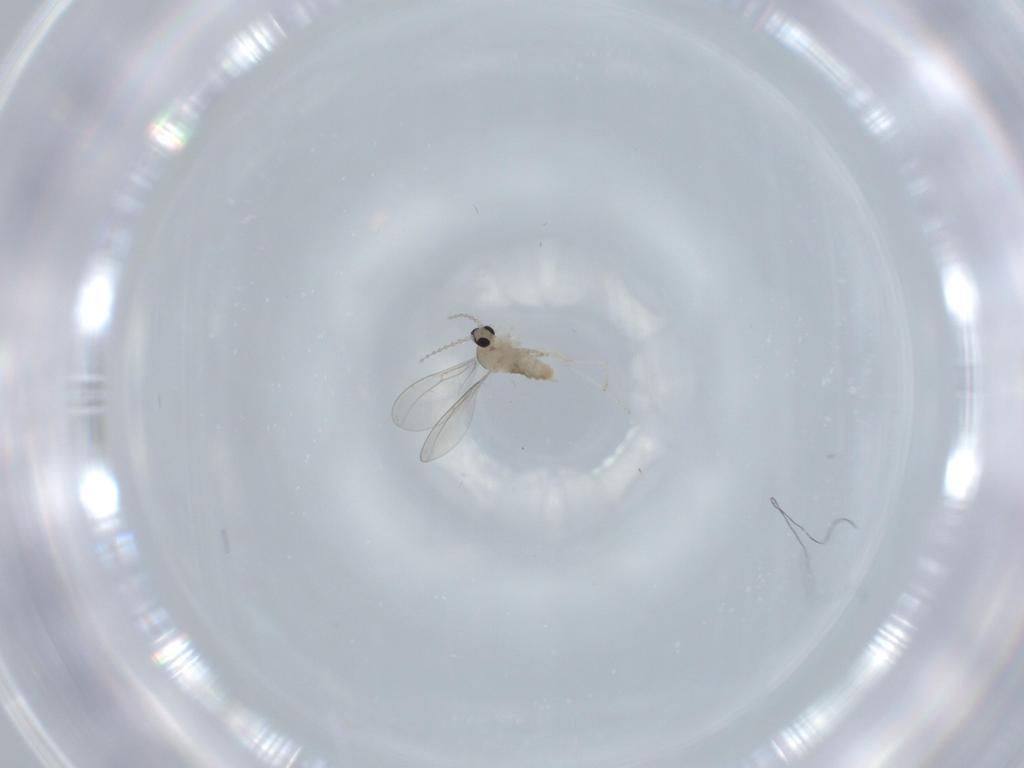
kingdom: Animalia
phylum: Arthropoda
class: Insecta
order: Diptera
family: Cecidomyiidae
